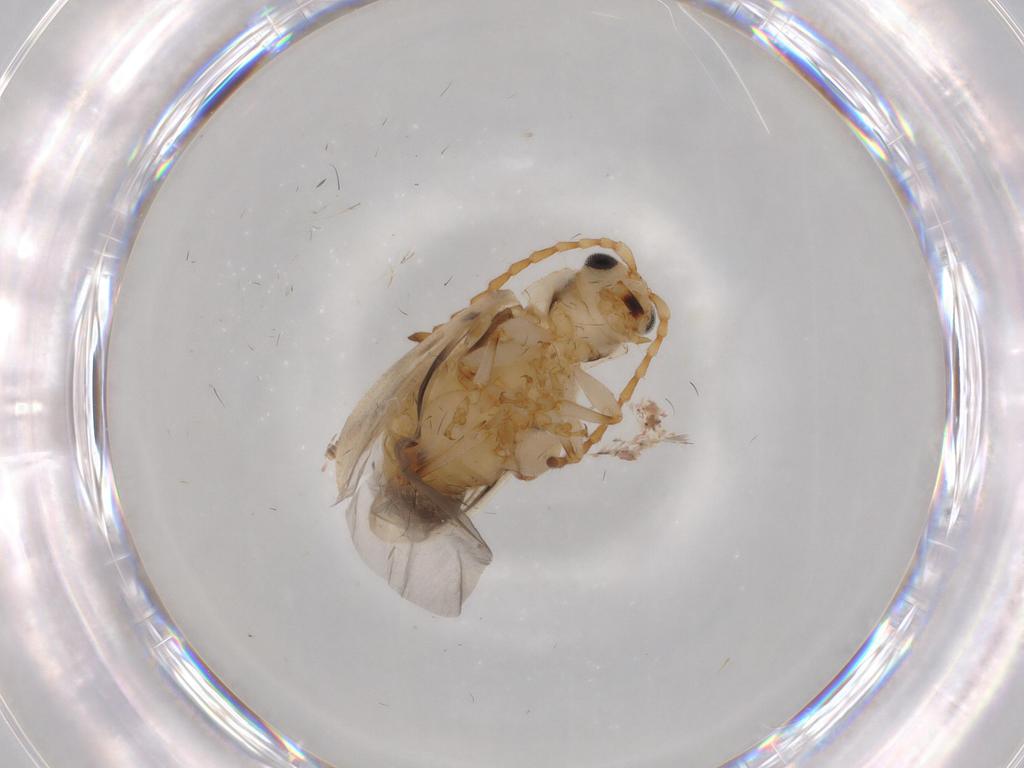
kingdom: Animalia
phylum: Arthropoda
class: Insecta
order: Coleoptera
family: Chrysomelidae
